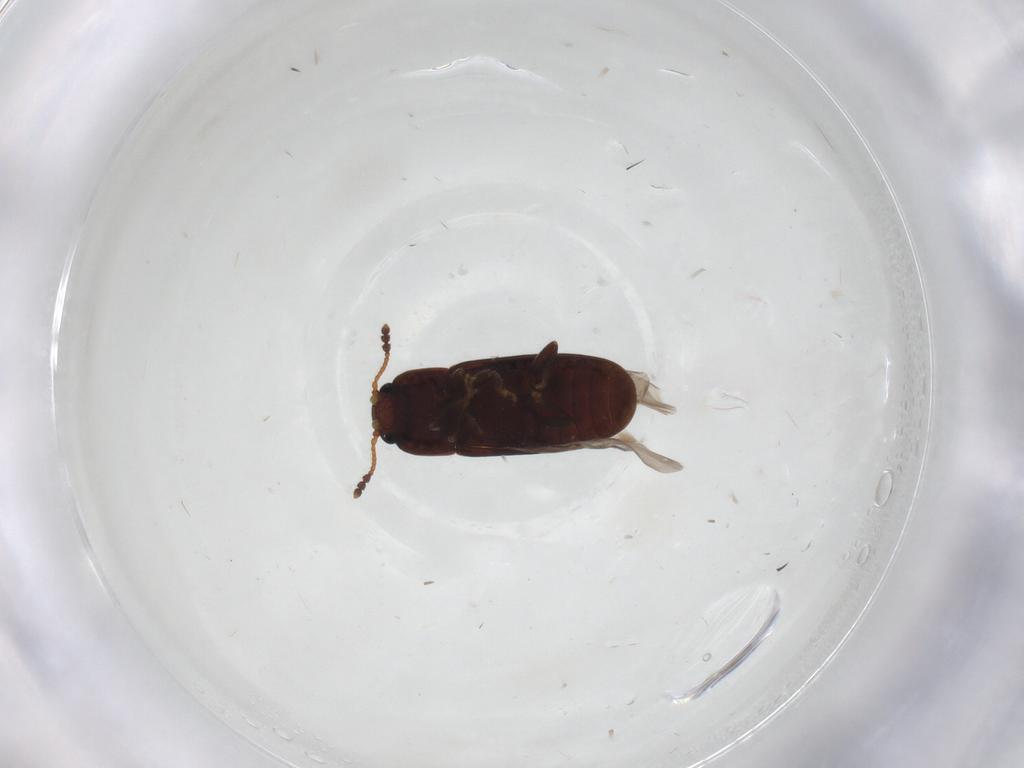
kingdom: Animalia
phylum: Arthropoda
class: Insecta
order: Coleoptera
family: Erotylidae
